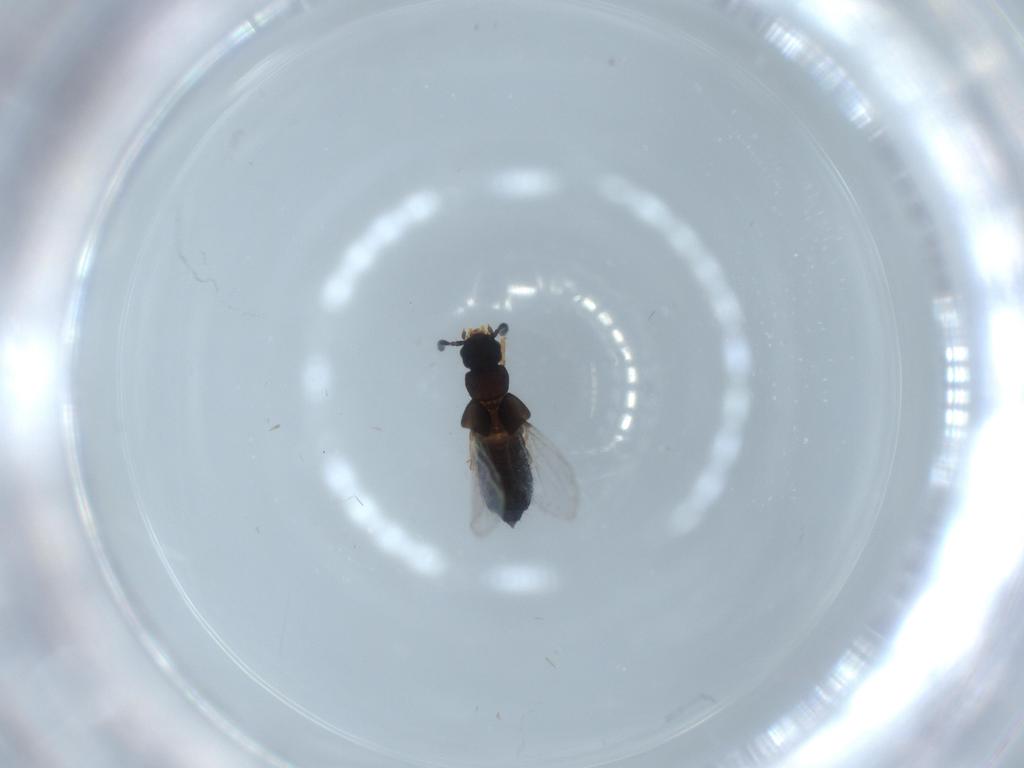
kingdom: Animalia
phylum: Arthropoda
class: Insecta
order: Coleoptera
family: Staphylinidae
